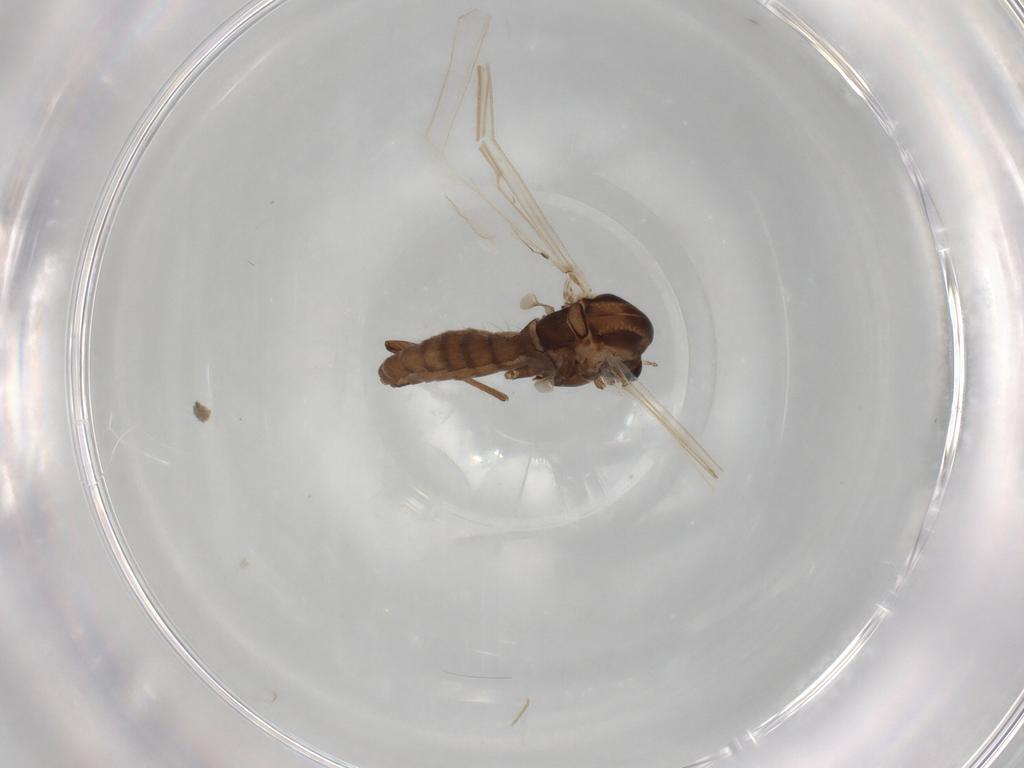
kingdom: Animalia
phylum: Arthropoda
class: Insecta
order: Diptera
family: Chironomidae
